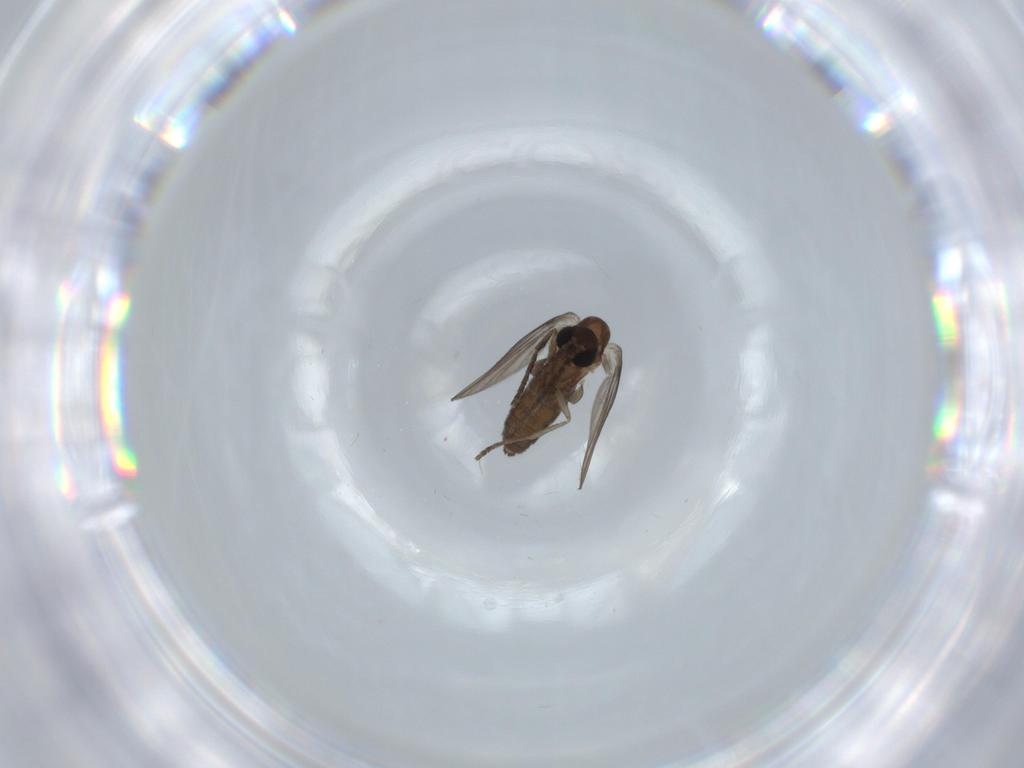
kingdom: Animalia
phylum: Arthropoda
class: Insecta
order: Diptera
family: Psychodidae
